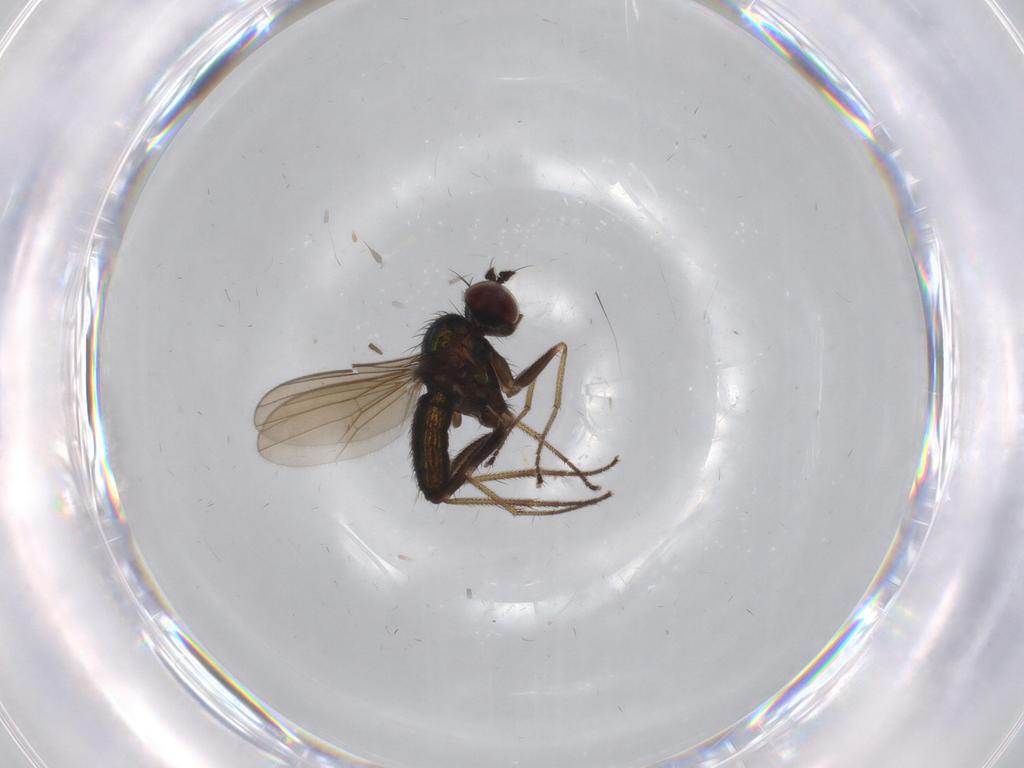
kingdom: Animalia
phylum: Arthropoda
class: Insecta
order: Diptera
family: Dolichopodidae
